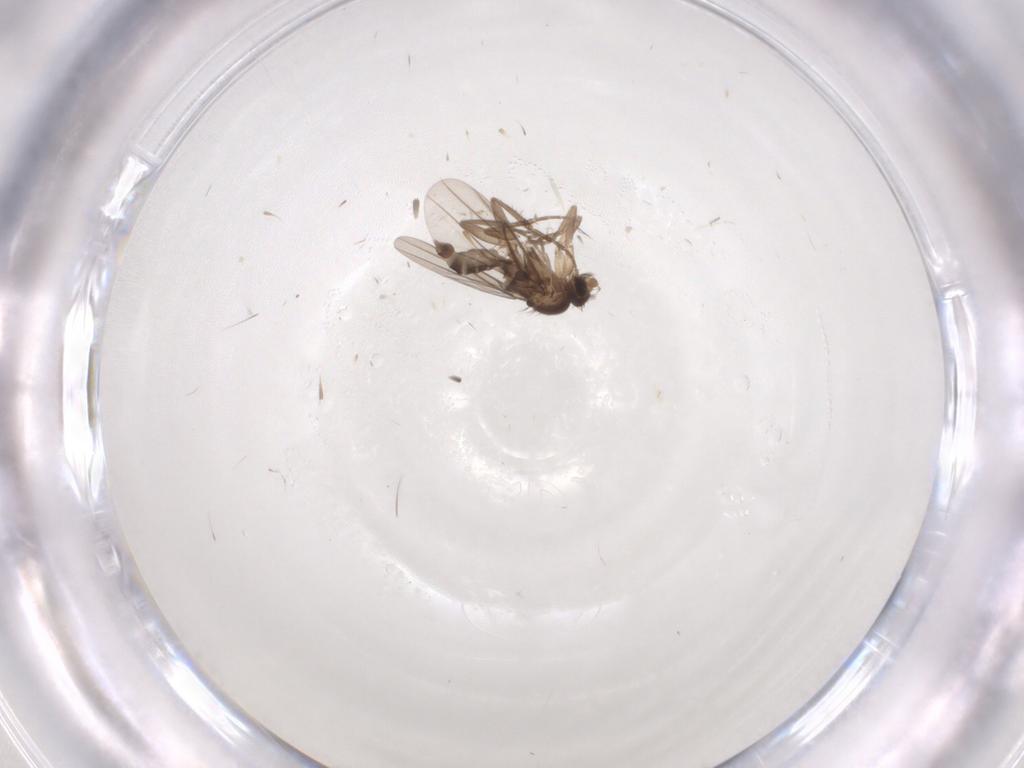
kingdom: Animalia
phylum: Arthropoda
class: Insecta
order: Diptera
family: Cecidomyiidae
